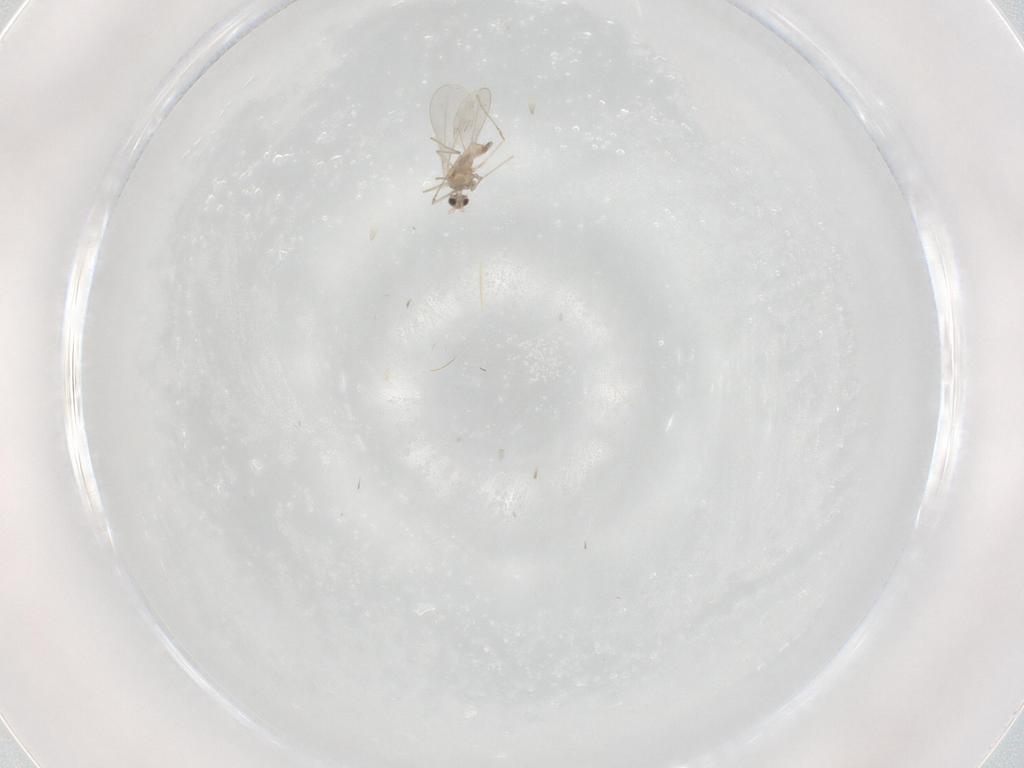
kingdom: Animalia
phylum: Arthropoda
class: Insecta
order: Diptera
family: Cecidomyiidae
